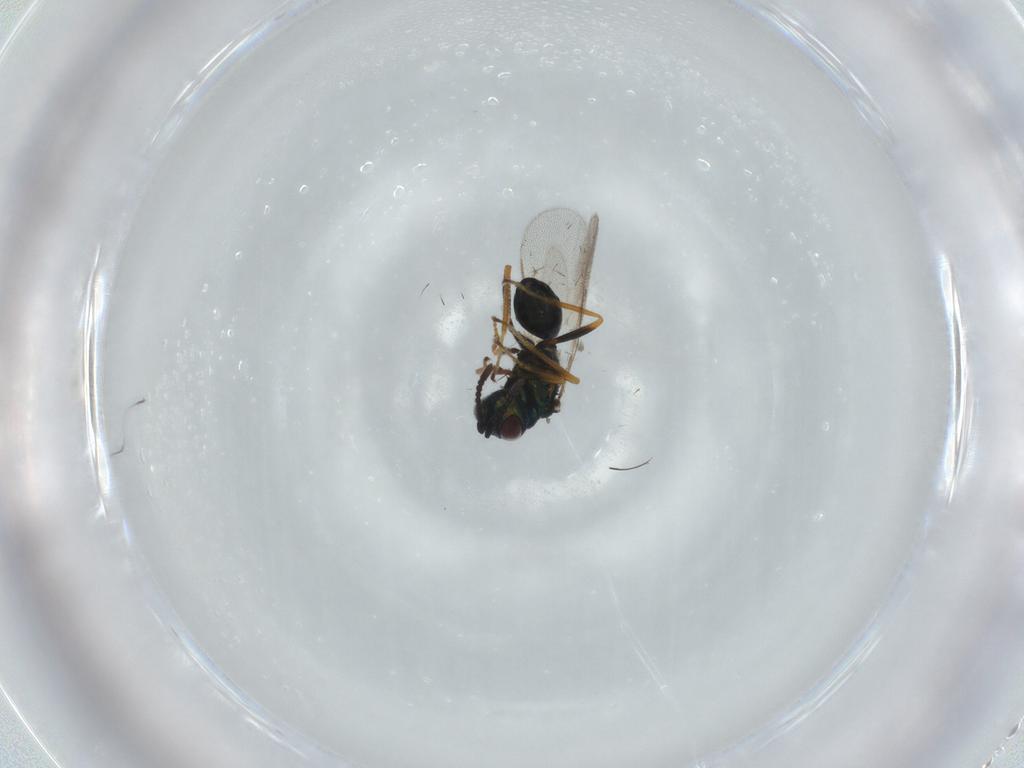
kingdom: Animalia
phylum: Arthropoda
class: Insecta
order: Hymenoptera
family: Pteromalidae
